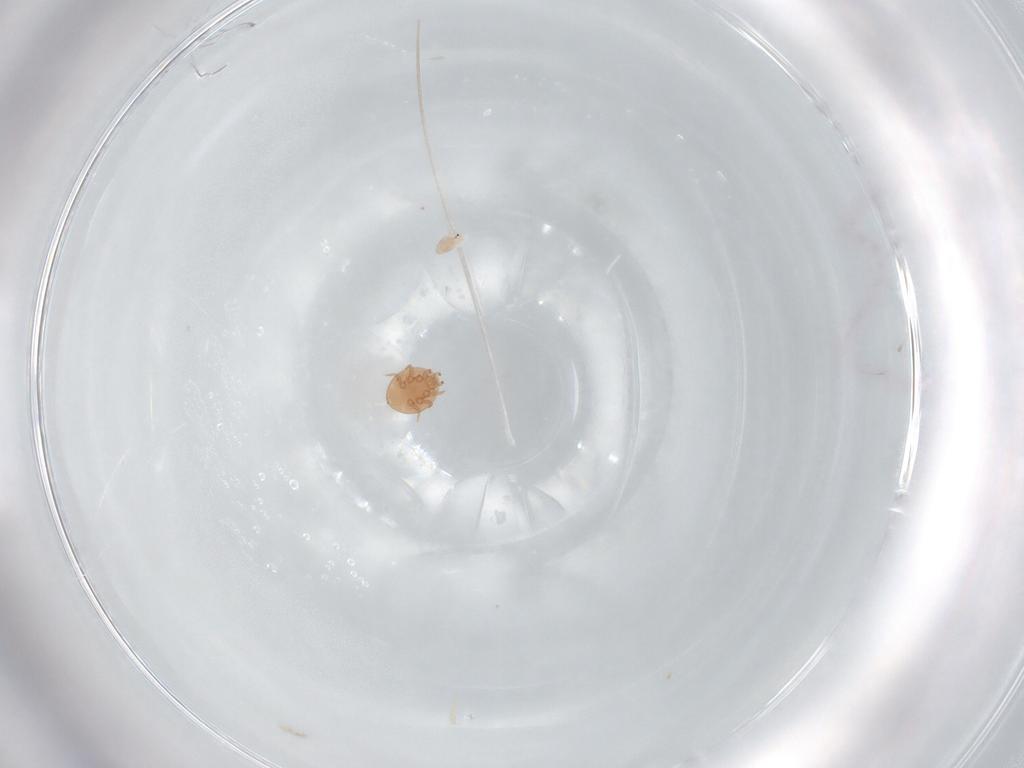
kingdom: Animalia
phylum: Arthropoda
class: Arachnida
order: Mesostigmata
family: Trematuridae
